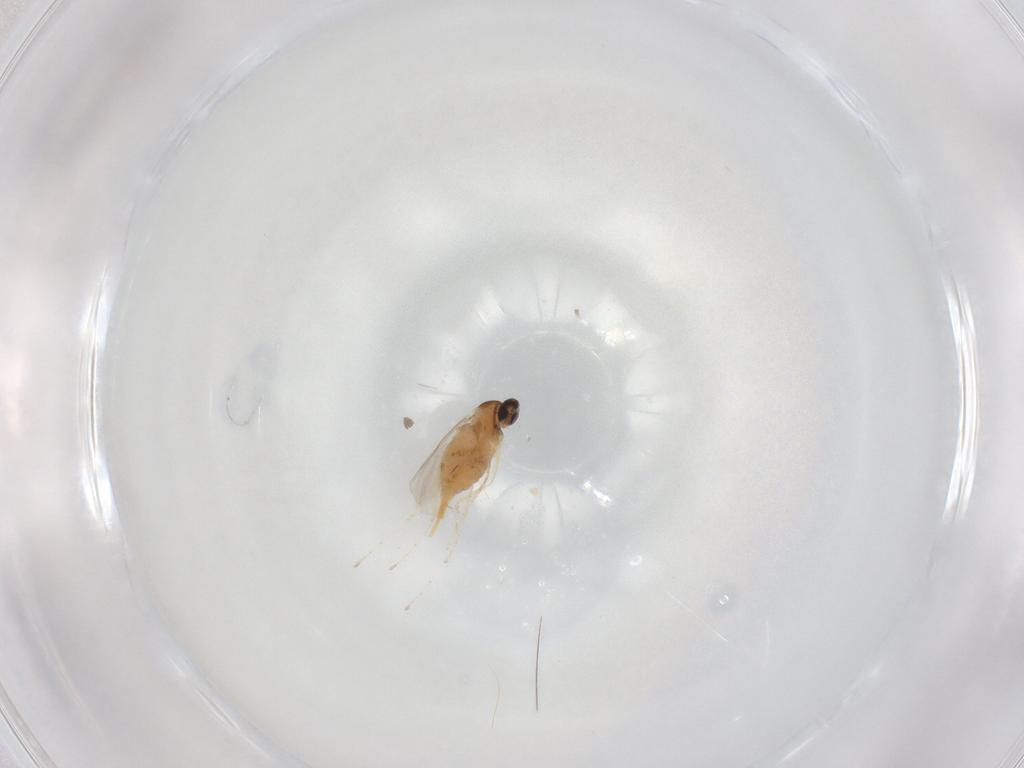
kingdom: Animalia
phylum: Arthropoda
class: Insecta
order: Diptera
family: Cecidomyiidae
